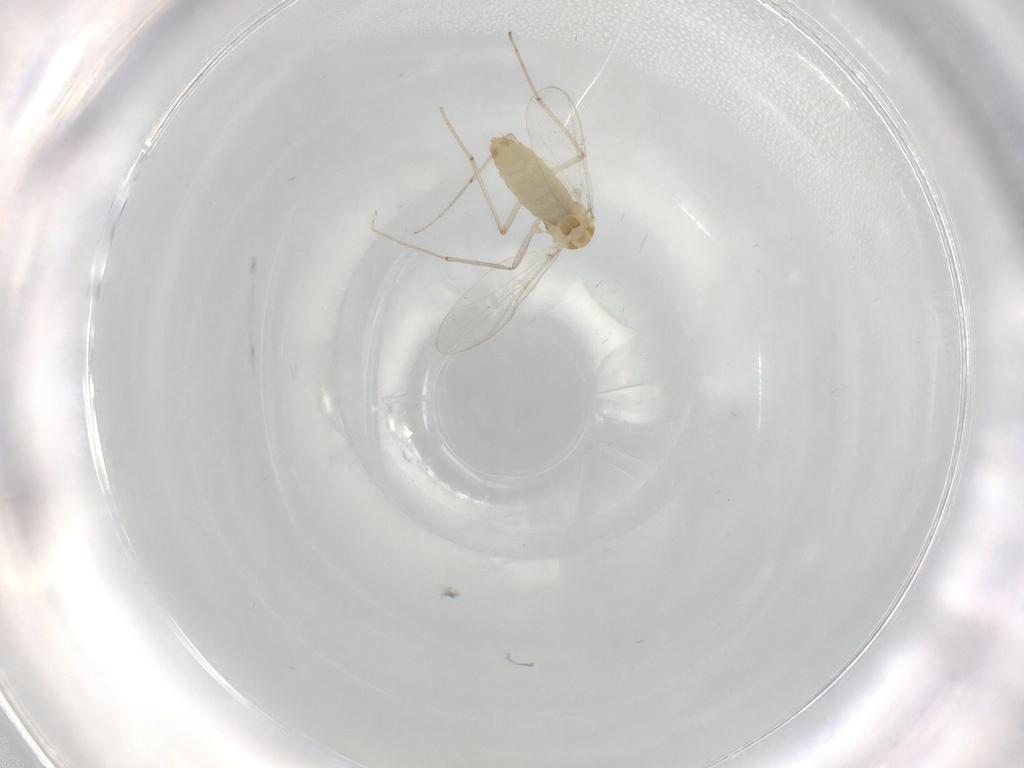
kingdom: Animalia
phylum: Arthropoda
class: Insecta
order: Diptera
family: Chironomidae
